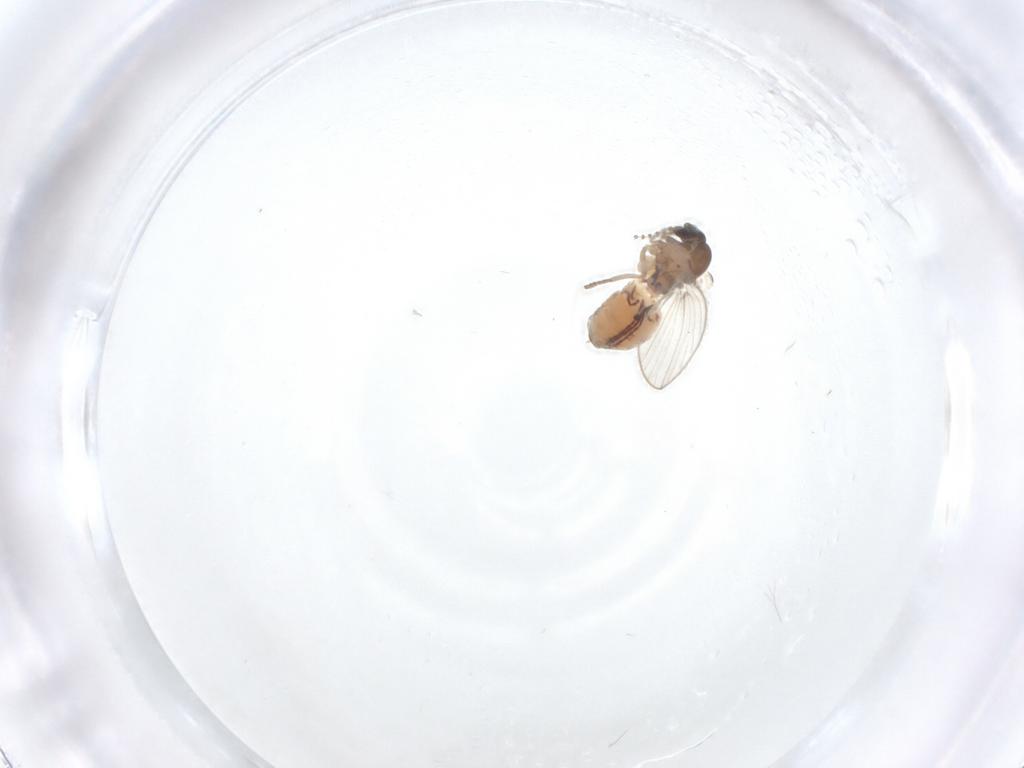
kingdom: Animalia
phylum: Arthropoda
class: Insecta
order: Diptera
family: Psychodidae
